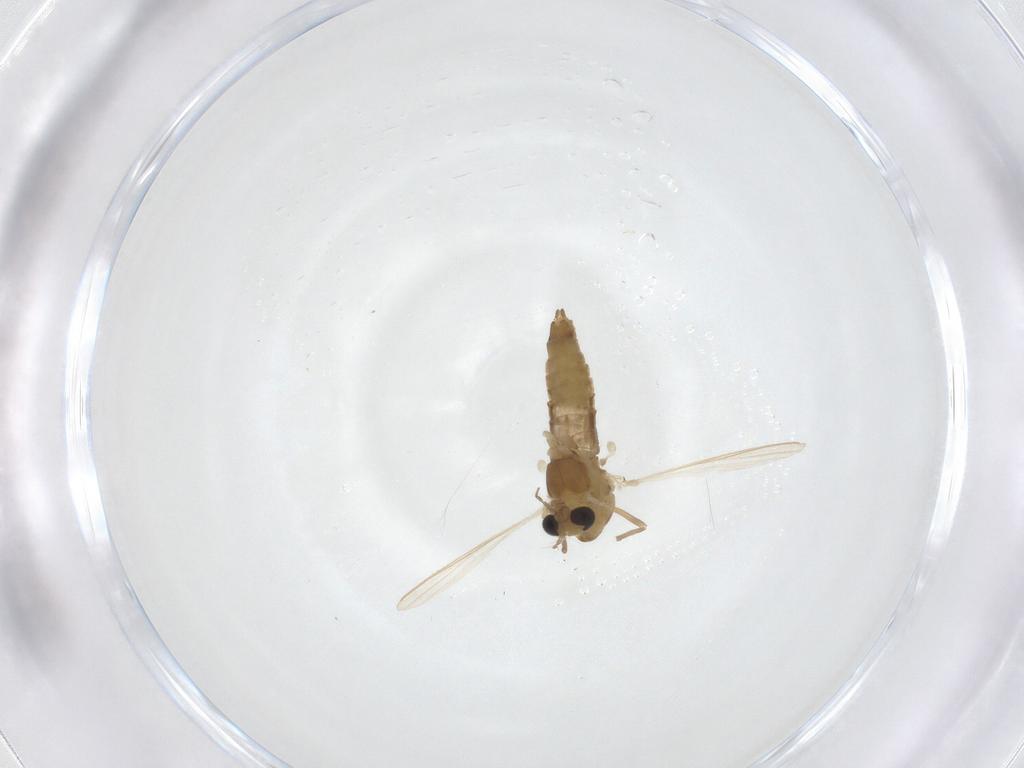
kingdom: Animalia
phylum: Arthropoda
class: Insecta
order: Diptera
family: Chironomidae
